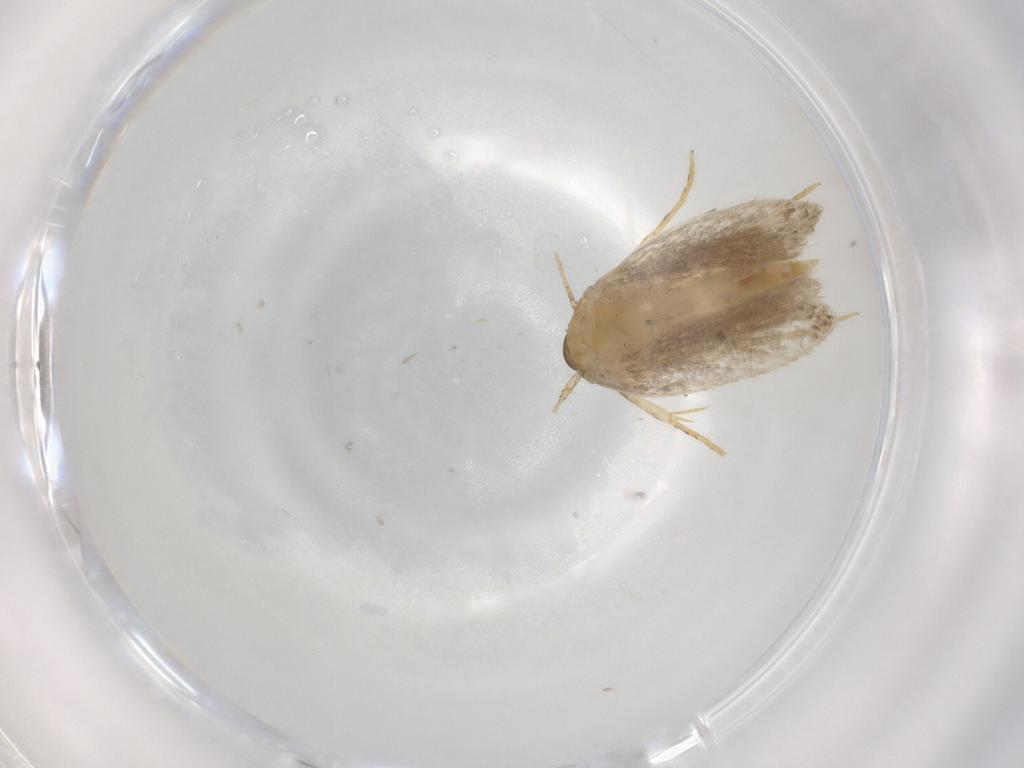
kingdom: Animalia
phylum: Arthropoda
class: Insecta
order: Lepidoptera
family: Autostichidae
